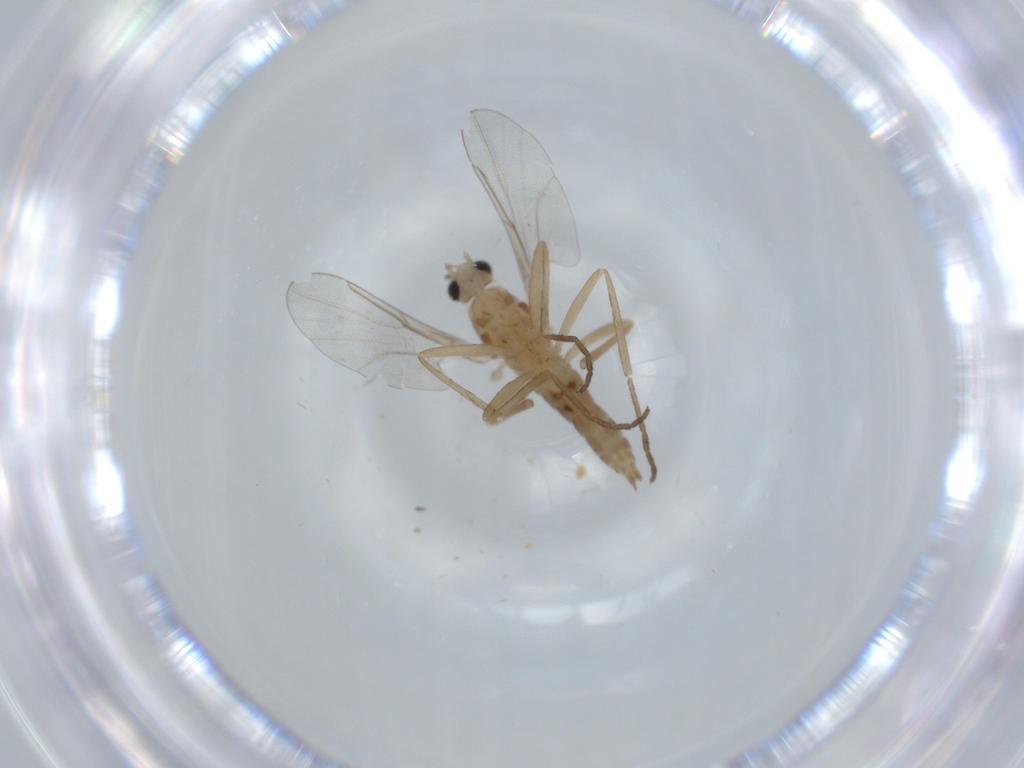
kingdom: Animalia
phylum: Arthropoda
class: Insecta
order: Diptera
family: Cecidomyiidae
